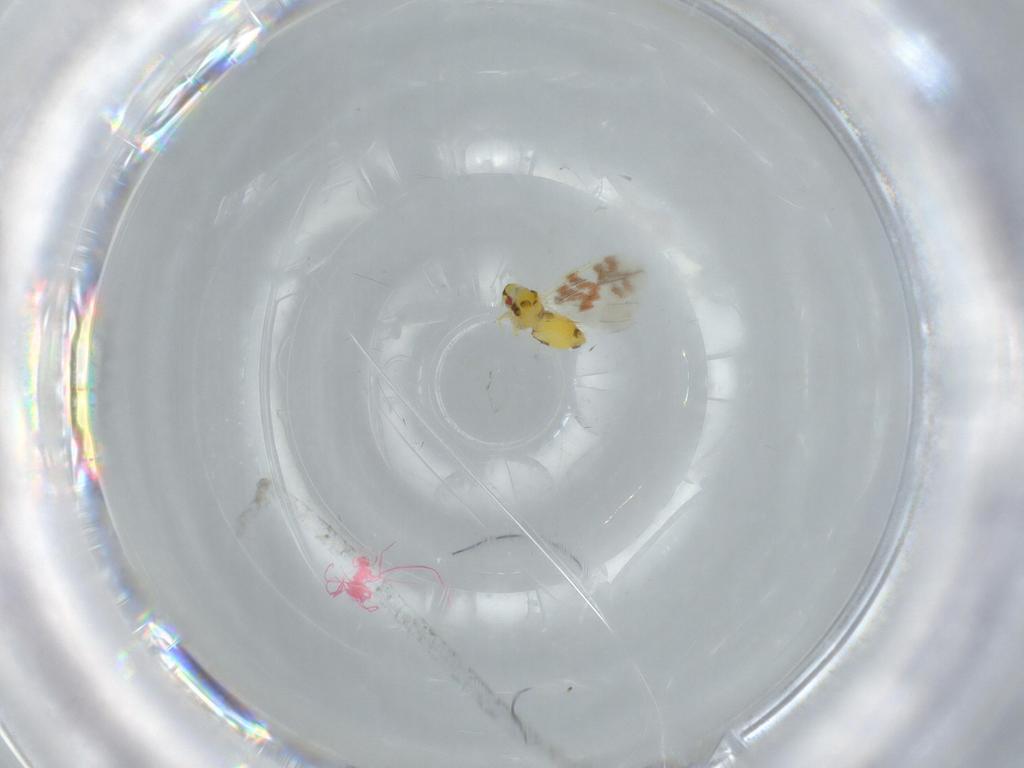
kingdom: Animalia
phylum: Arthropoda
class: Insecta
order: Hemiptera
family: Aleyrodidae
